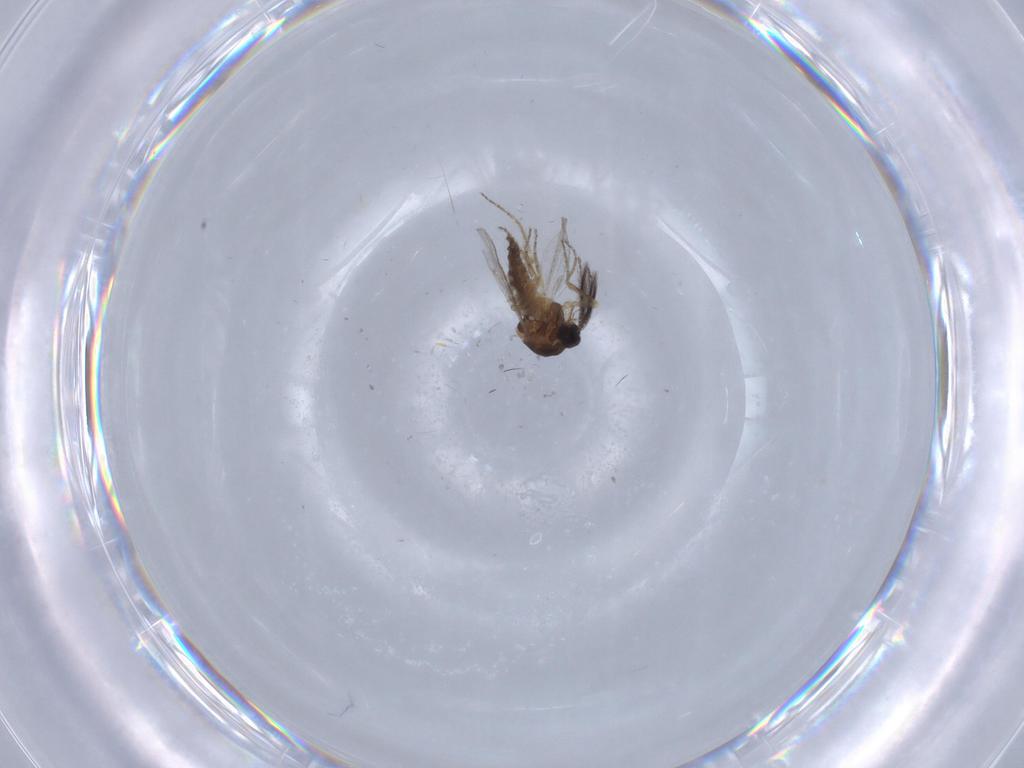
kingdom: Animalia
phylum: Arthropoda
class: Insecta
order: Diptera
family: Ceratopogonidae
